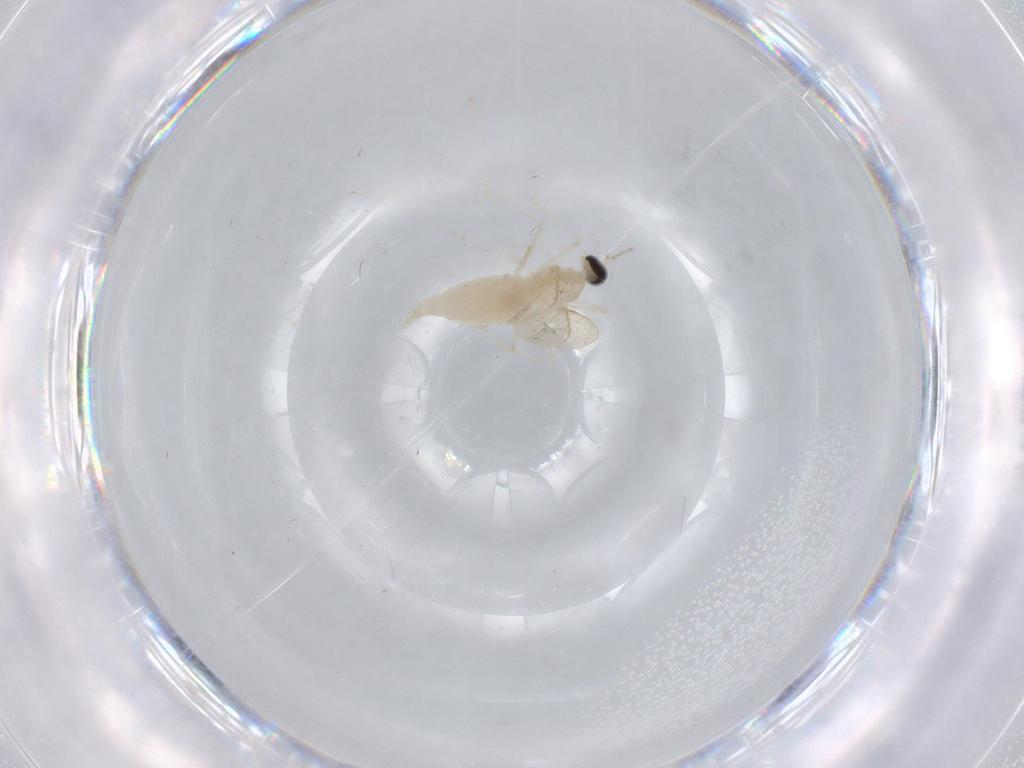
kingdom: Animalia
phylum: Arthropoda
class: Insecta
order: Diptera
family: Cecidomyiidae
